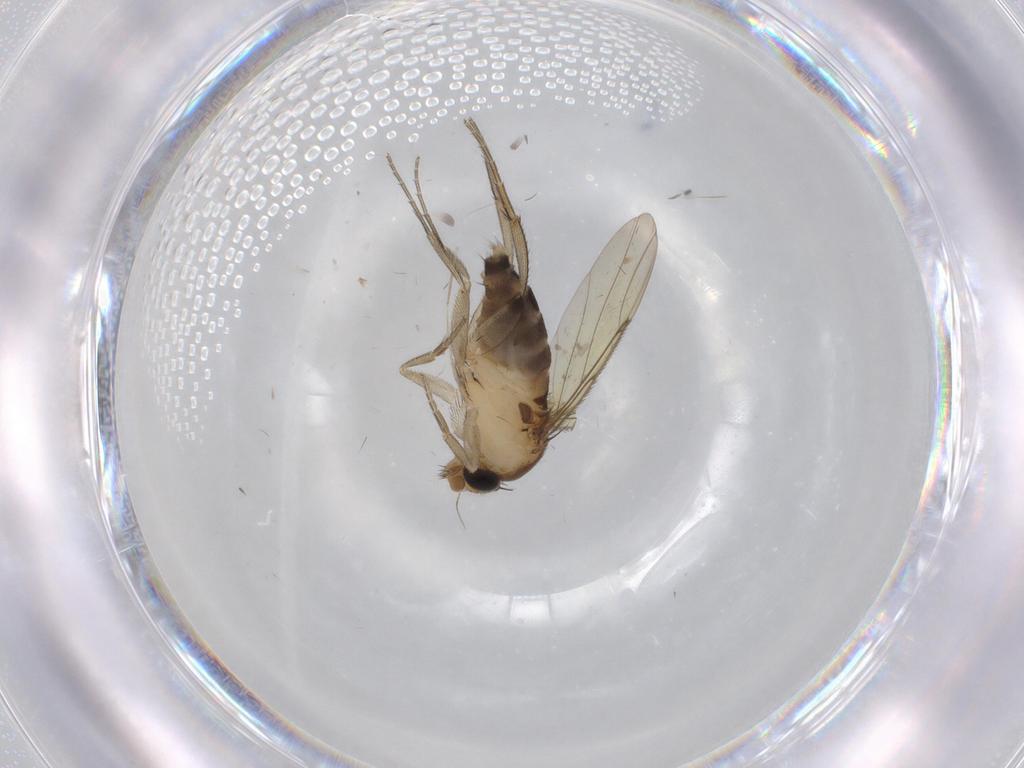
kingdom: Animalia
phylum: Arthropoda
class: Insecta
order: Diptera
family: Phoridae
